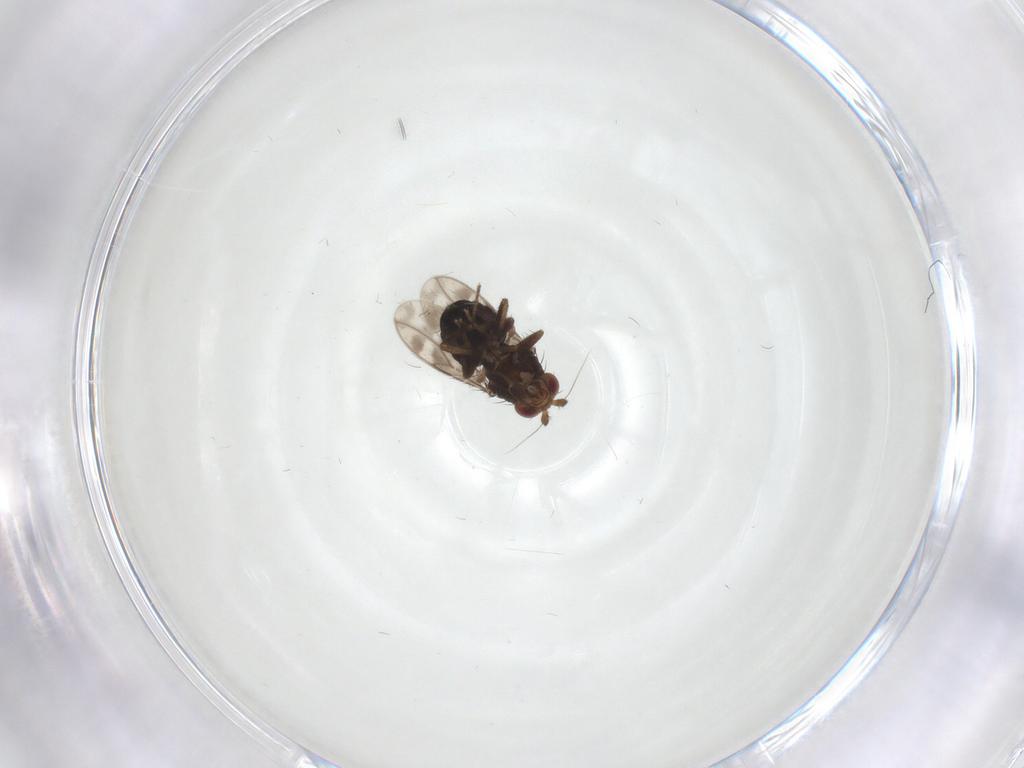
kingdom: Animalia
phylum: Arthropoda
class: Insecta
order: Diptera
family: Sphaeroceridae
